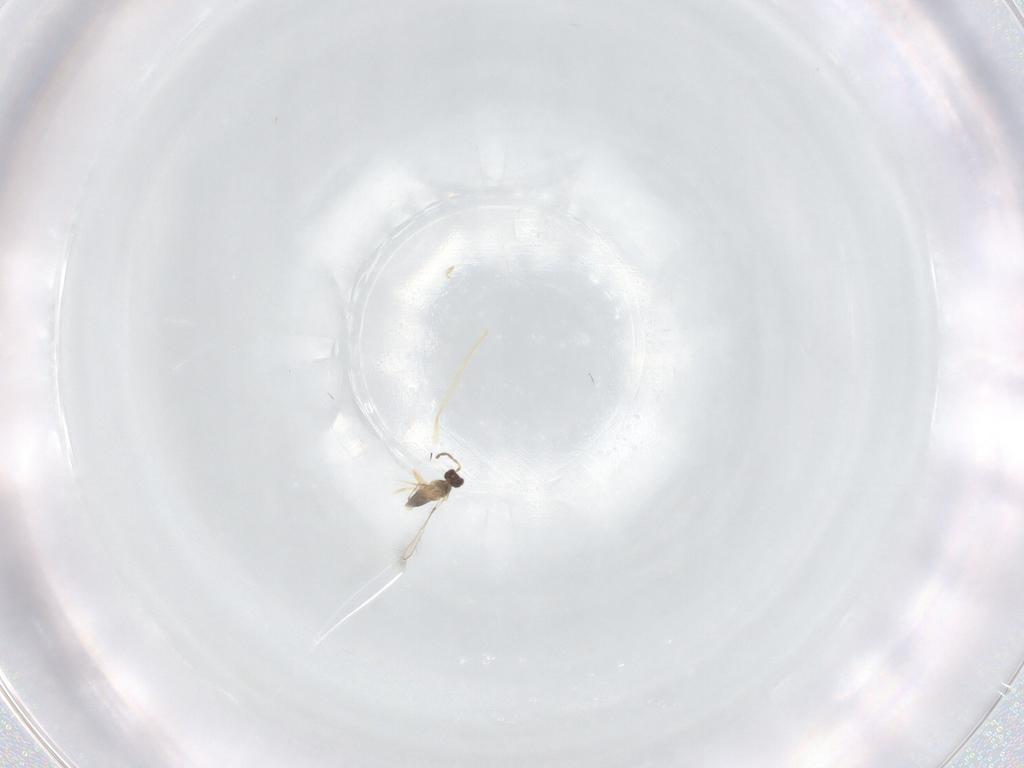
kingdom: Animalia
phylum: Arthropoda
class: Insecta
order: Hymenoptera
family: Mymaridae
